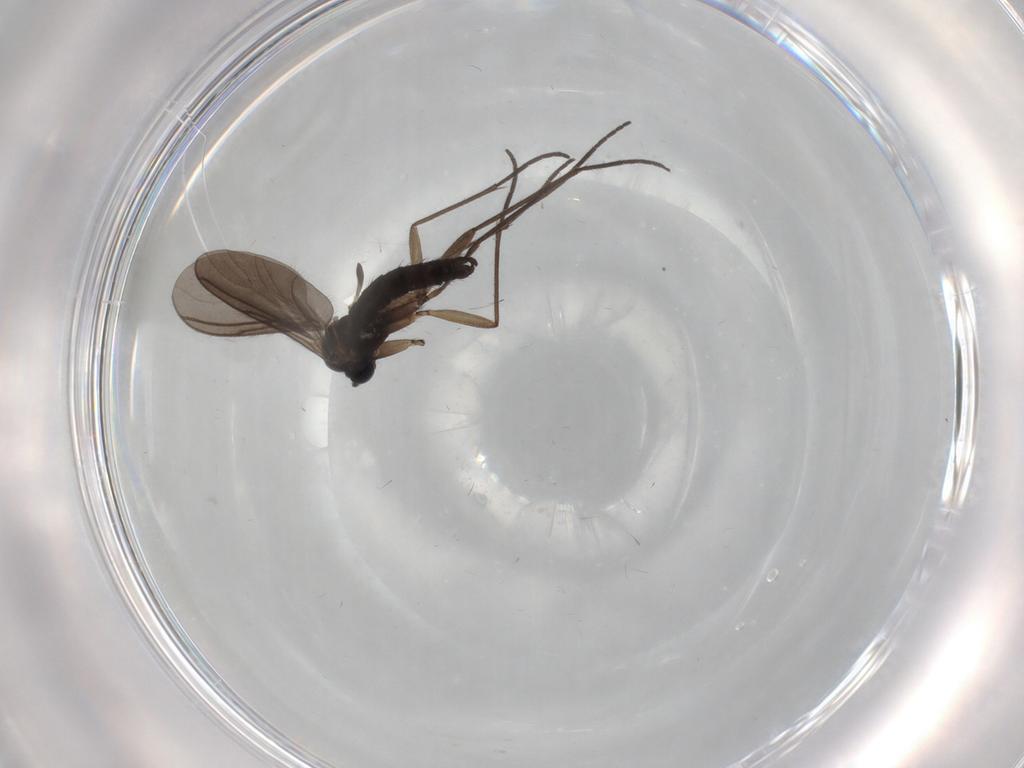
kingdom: Animalia
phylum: Arthropoda
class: Insecta
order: Diptera
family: Sciaridae
